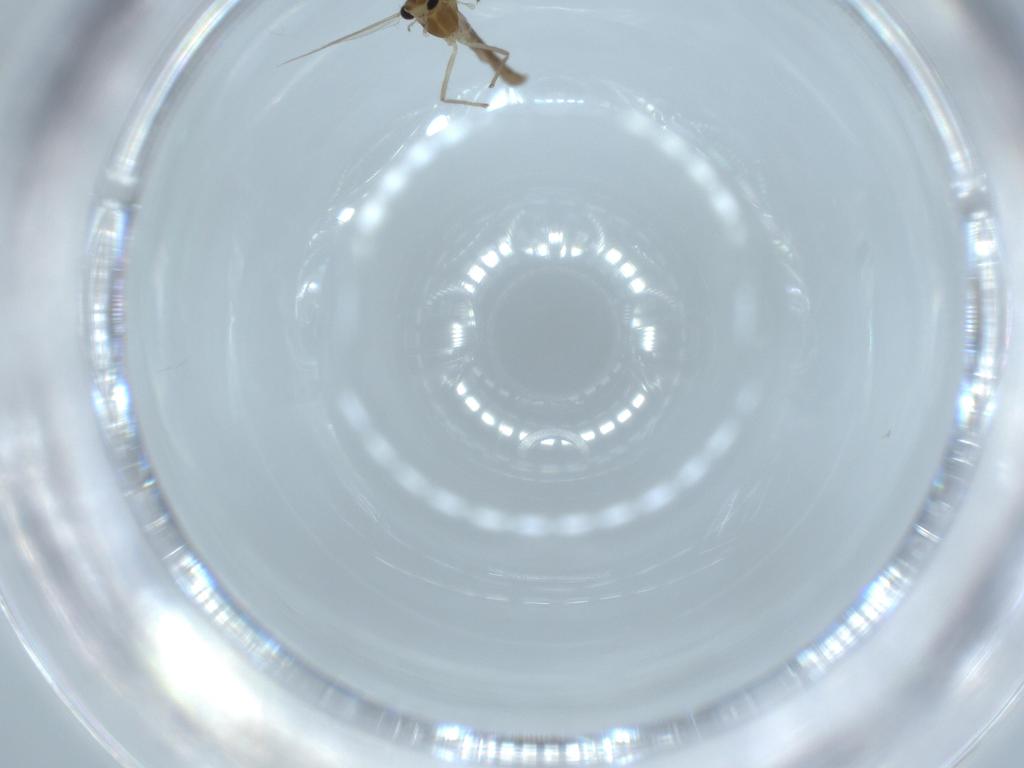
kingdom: Animalia
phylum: Arthropoda
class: Insecta
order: Diptera
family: Chironomidae
